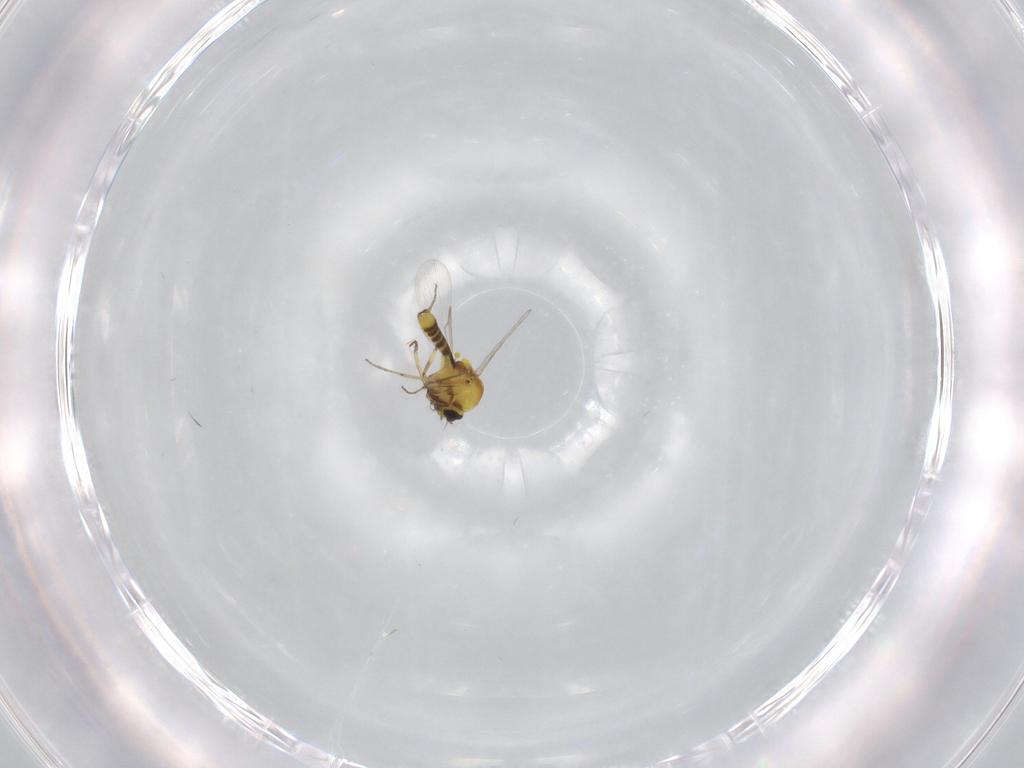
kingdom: Animalia
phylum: Arthropoda
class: Insecta
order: Diptera
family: Ceratopogonidae
